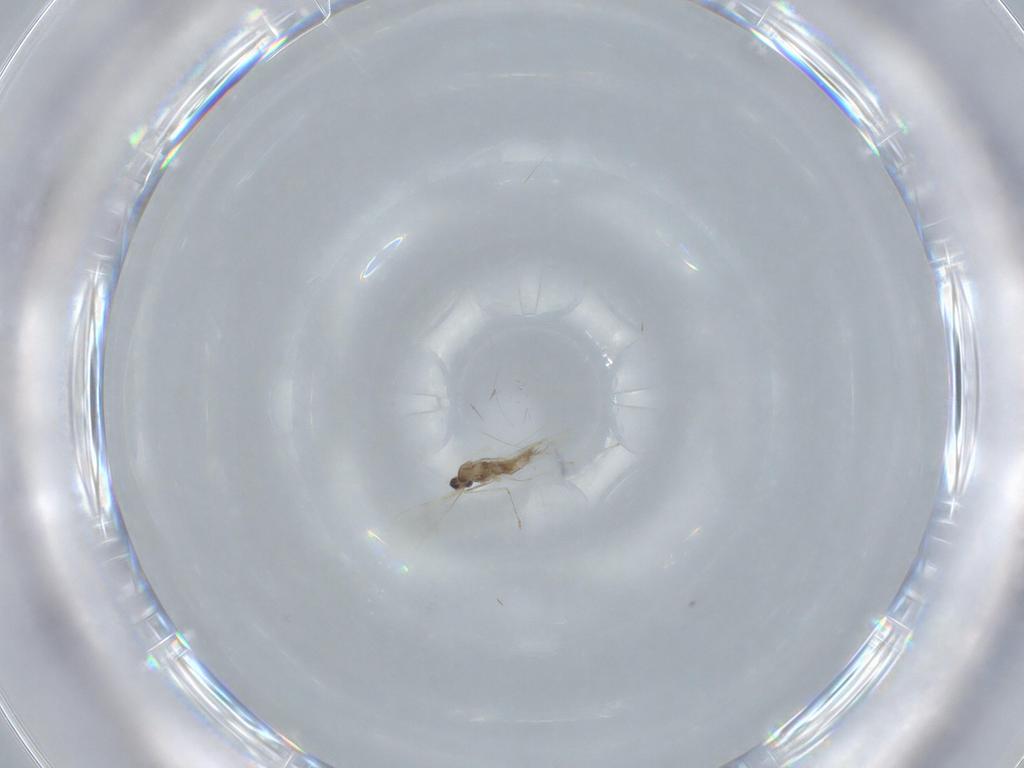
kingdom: Animalia
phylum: Arthropoda
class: Insecta
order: Diptera
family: Cecidomyiidae
